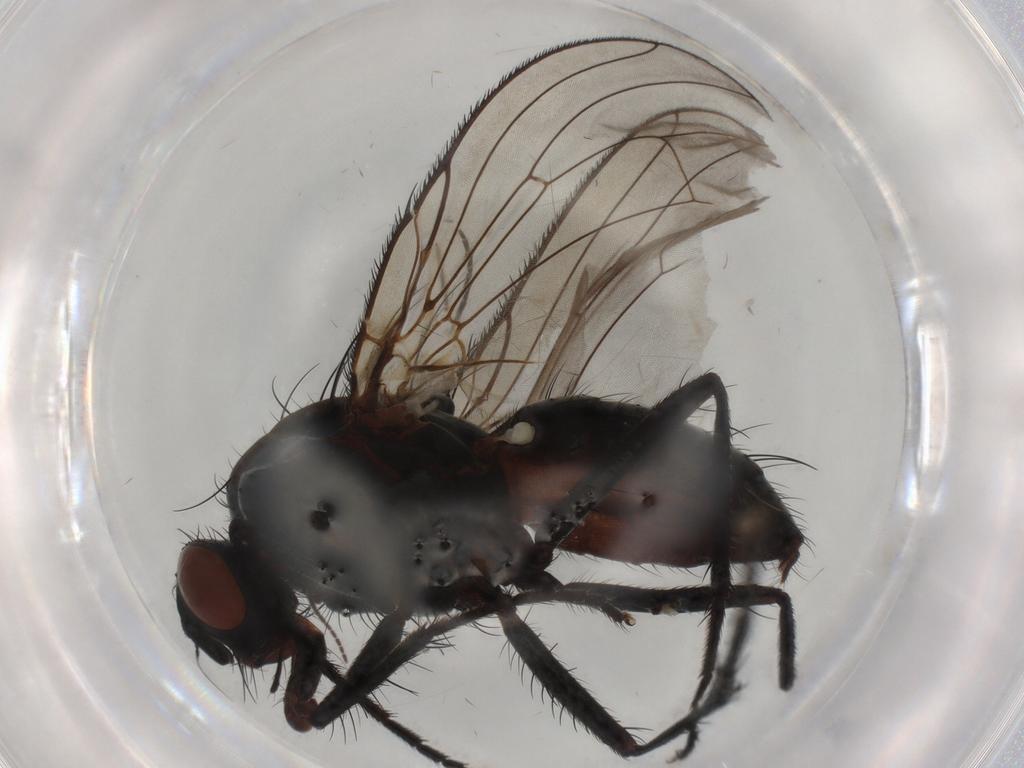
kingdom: Animalia
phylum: Arthropoda
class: Insecta
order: Diptera
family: Anthomyiidae
